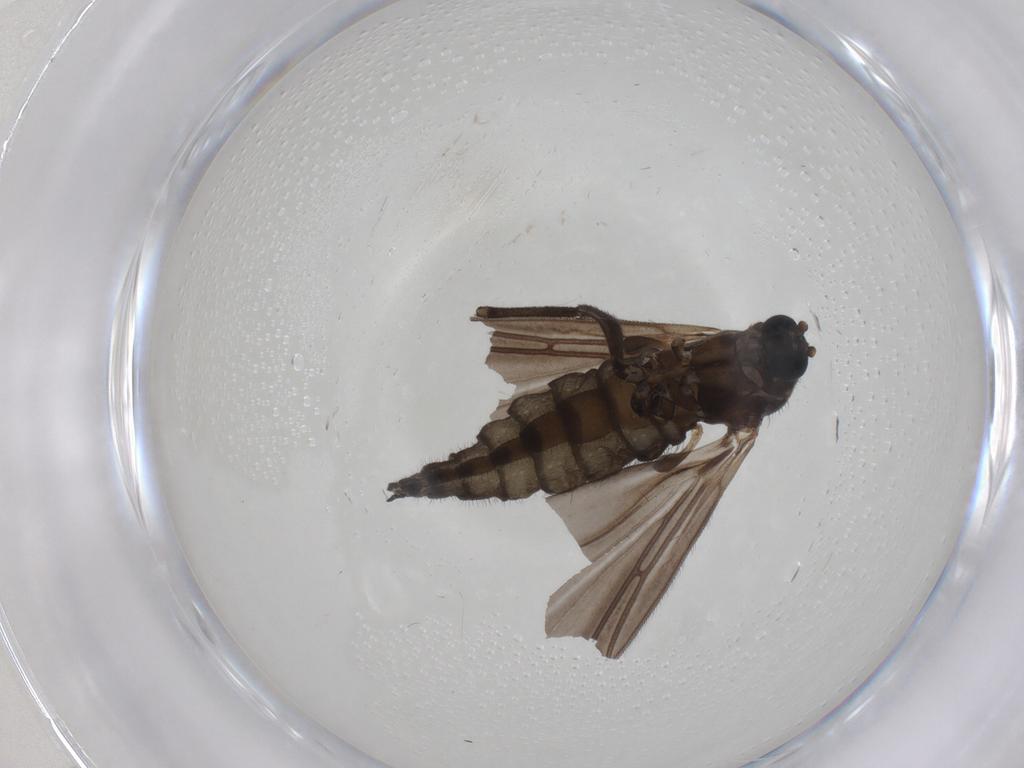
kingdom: Animalia
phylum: Arthropoda
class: Insecta
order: Diptera
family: Sciaridae
